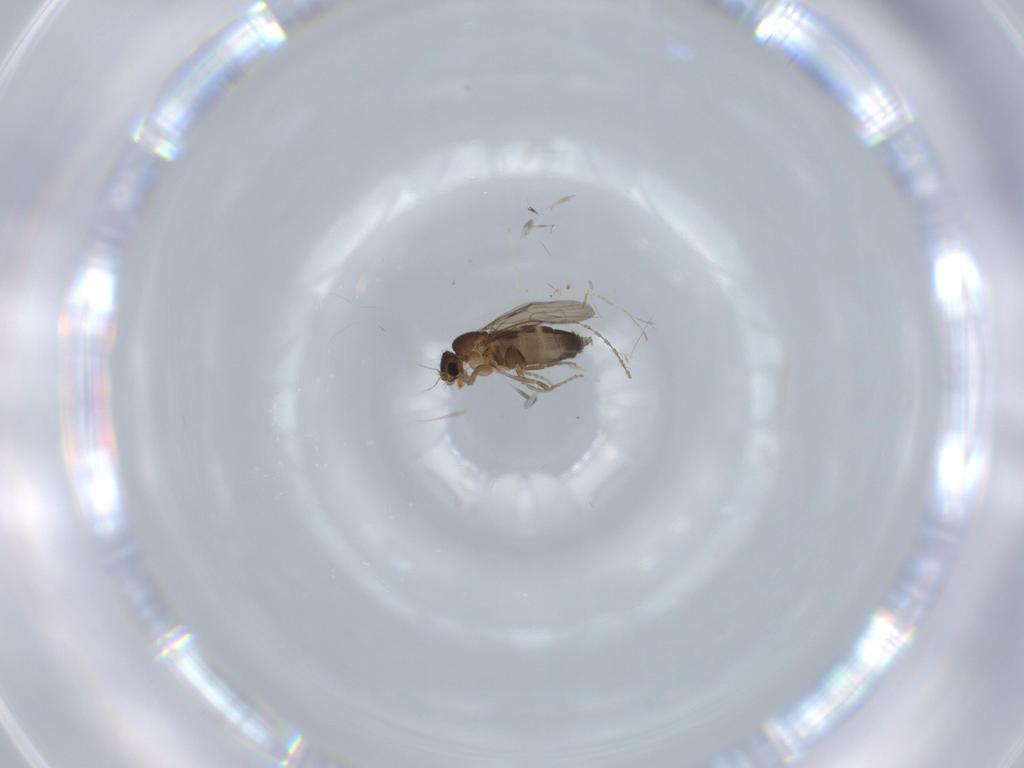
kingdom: Animalia
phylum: Arthropoda
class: Insecta
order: Diptera
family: Phoridae
